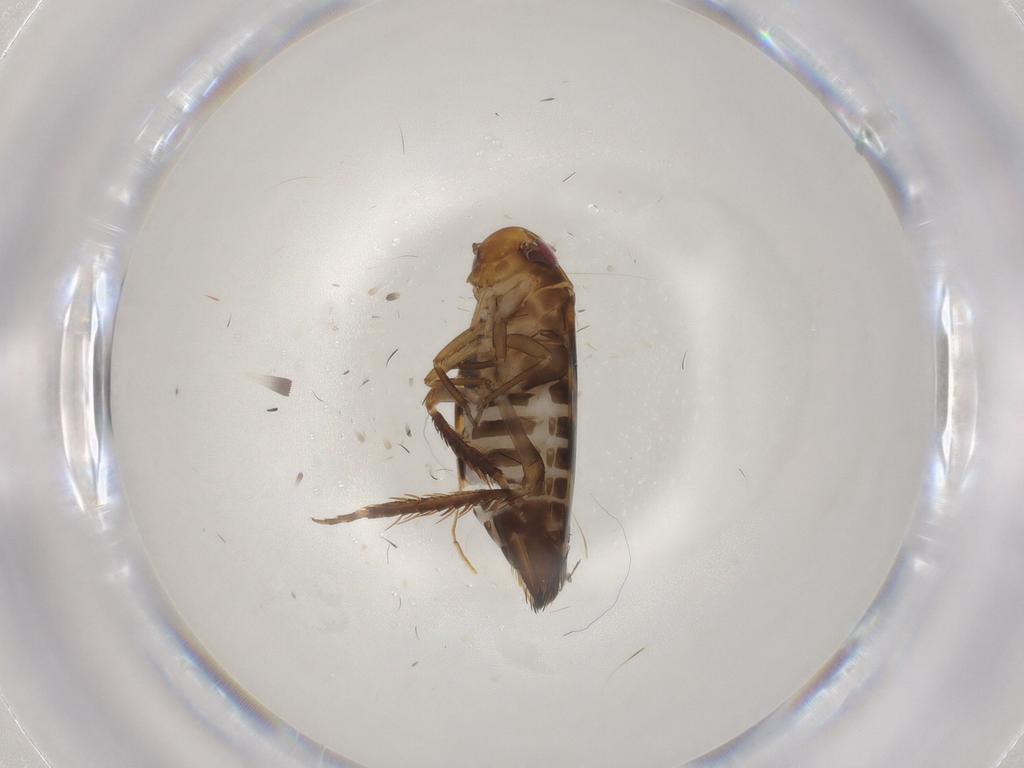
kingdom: Animalia
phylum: Arthropoda
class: Insecta
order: Hemiptera
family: Cicadellidae
